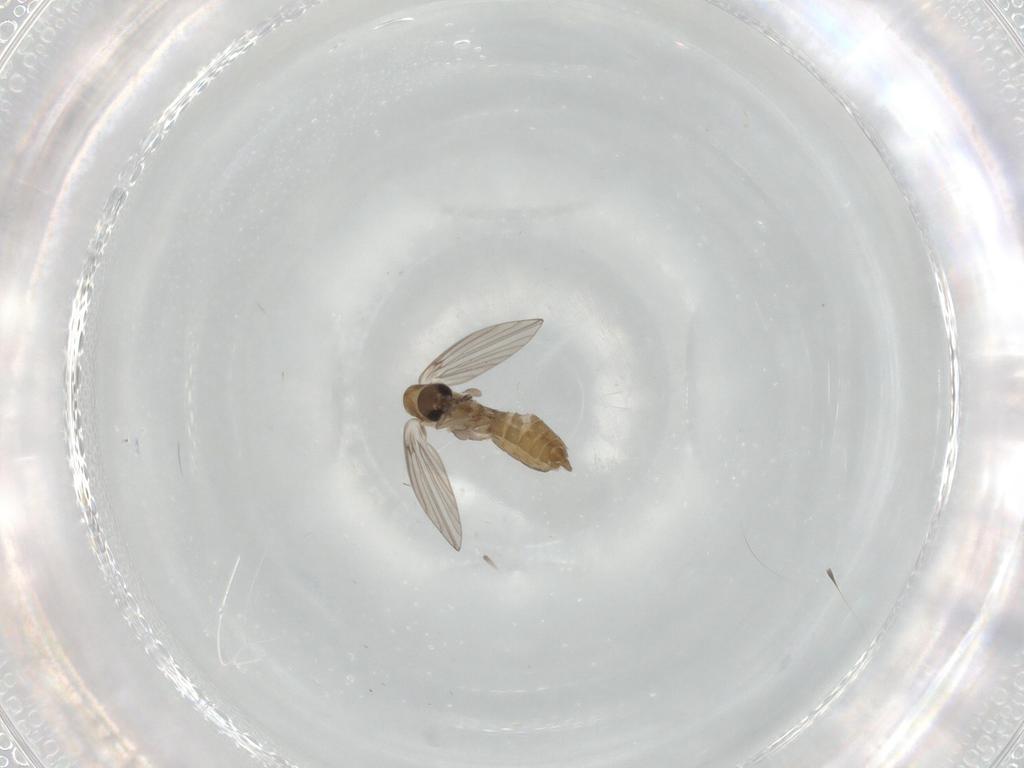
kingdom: Animalia
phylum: Arthropoda
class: Insecta
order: Diptera
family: Psychodidae
